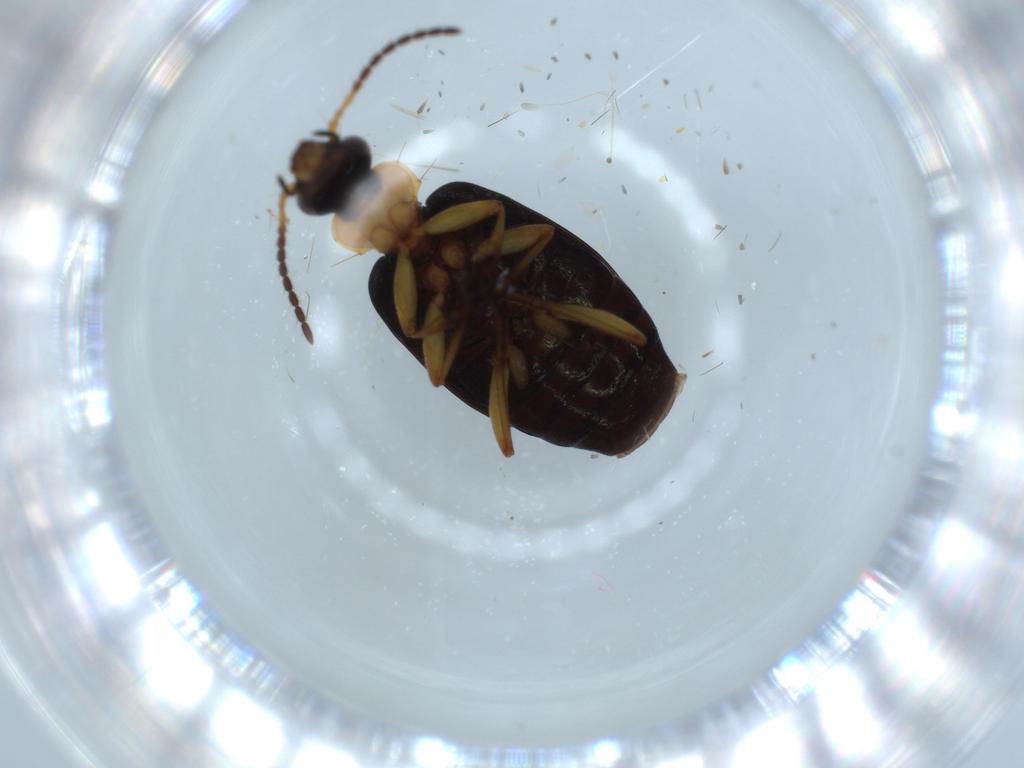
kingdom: Animalia
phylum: Arthropoda
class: Insecta
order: Coleoptera
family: Carabidae
